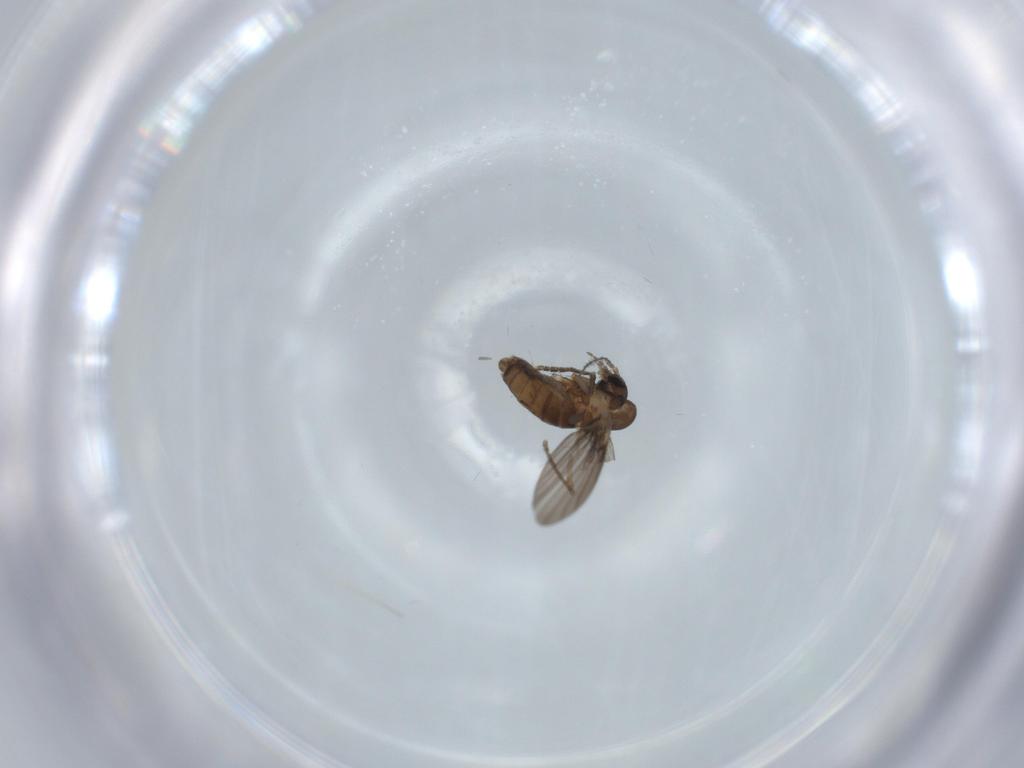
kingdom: Animalia
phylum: Arthropoda
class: Insecta
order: Diptera
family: Psychodidae
